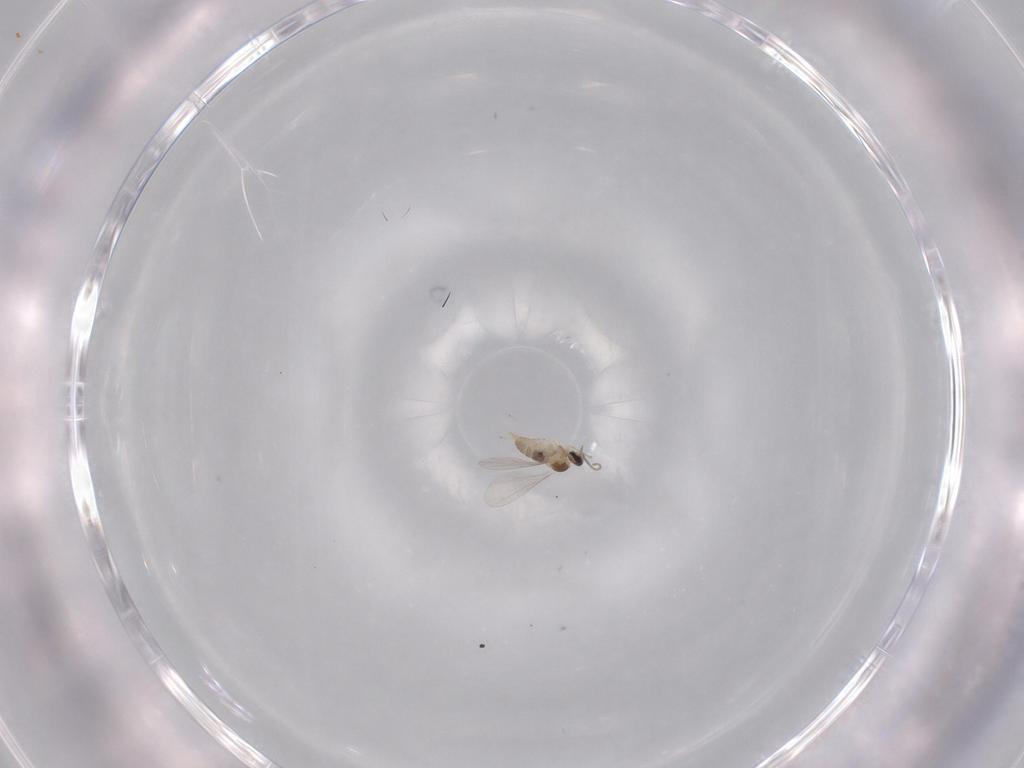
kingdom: Animalia
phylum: Arthropoda
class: Insecta
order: Diptera
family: Cecidomyiidae
